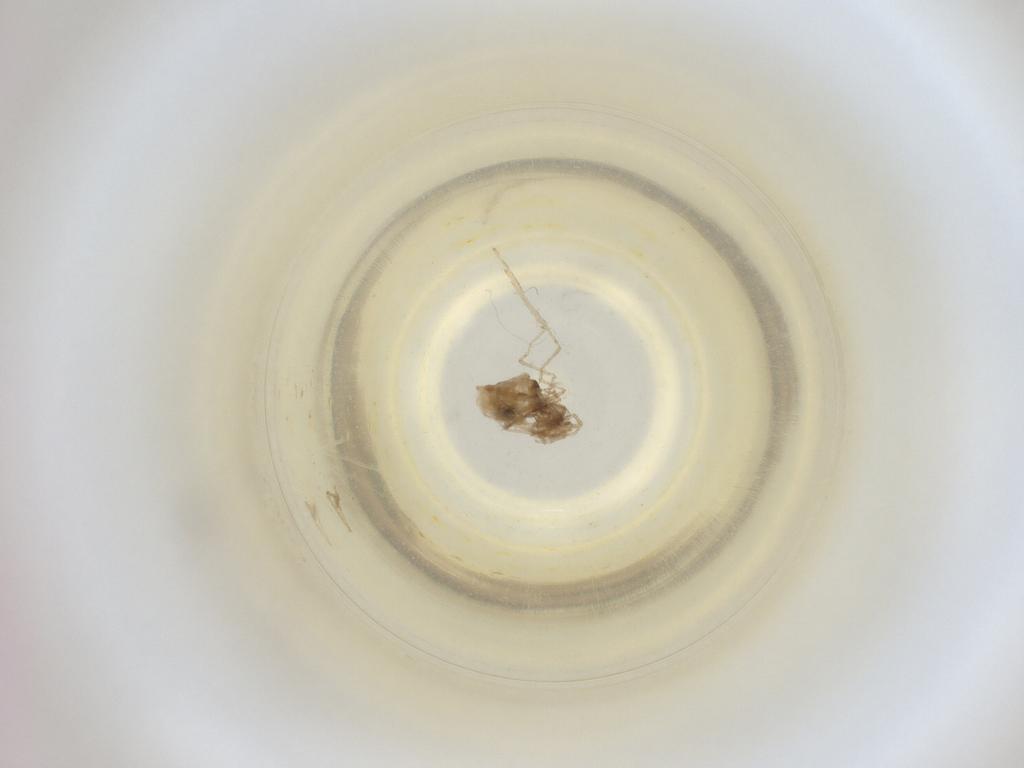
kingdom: Animalia
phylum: Arthropoda
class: Insecta
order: Diptera
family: Cecidomyiidae
